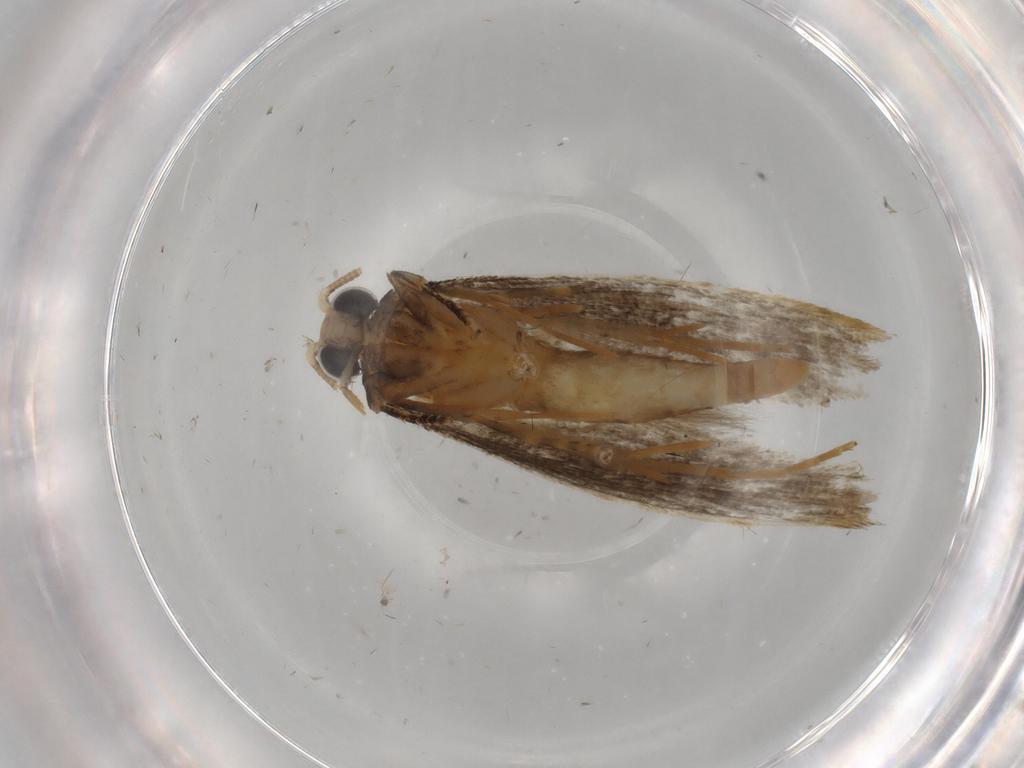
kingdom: Animalia
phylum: Arthropoda
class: Insecta
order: Lepidoptera
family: Tineidae
